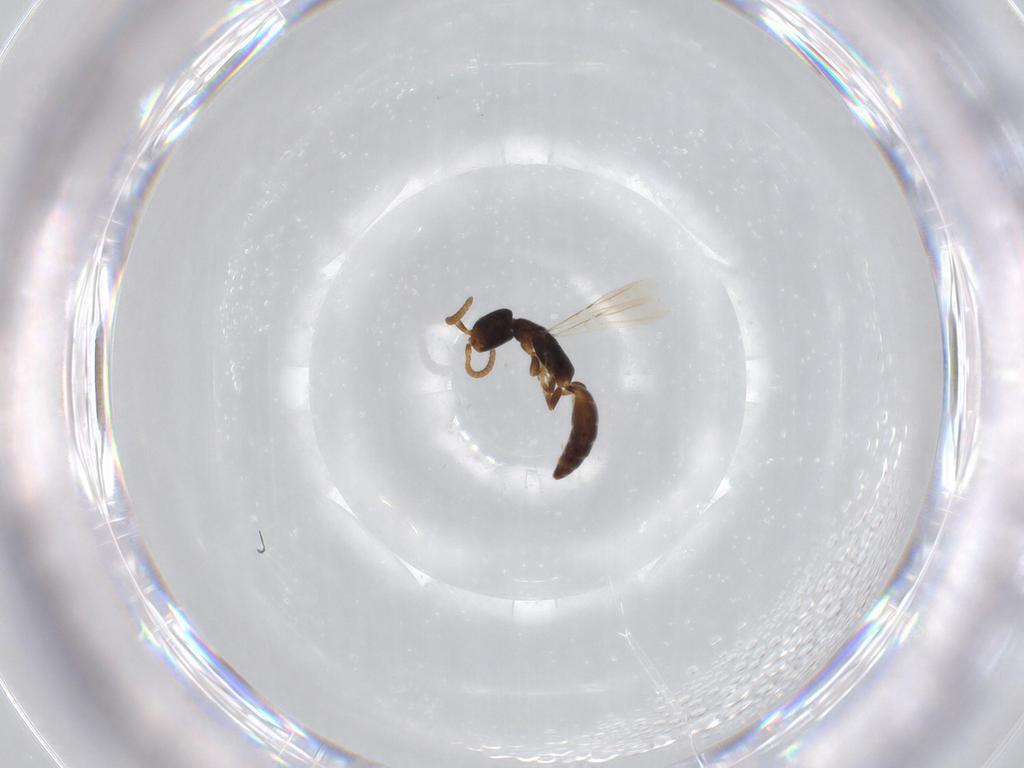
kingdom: Animalia
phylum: Arthropoda
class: Insecta
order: Hymenoptera
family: Bethylidae
